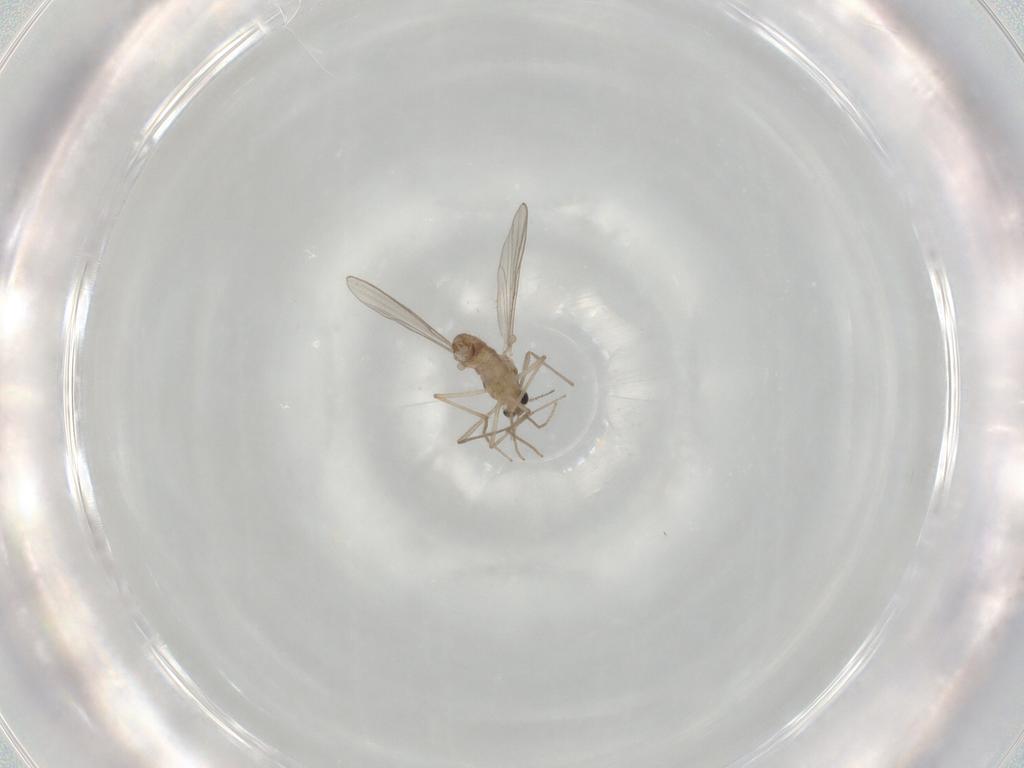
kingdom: Animalia
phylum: Arthropoda
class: Insecta
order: Diptera
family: Chironomidae
